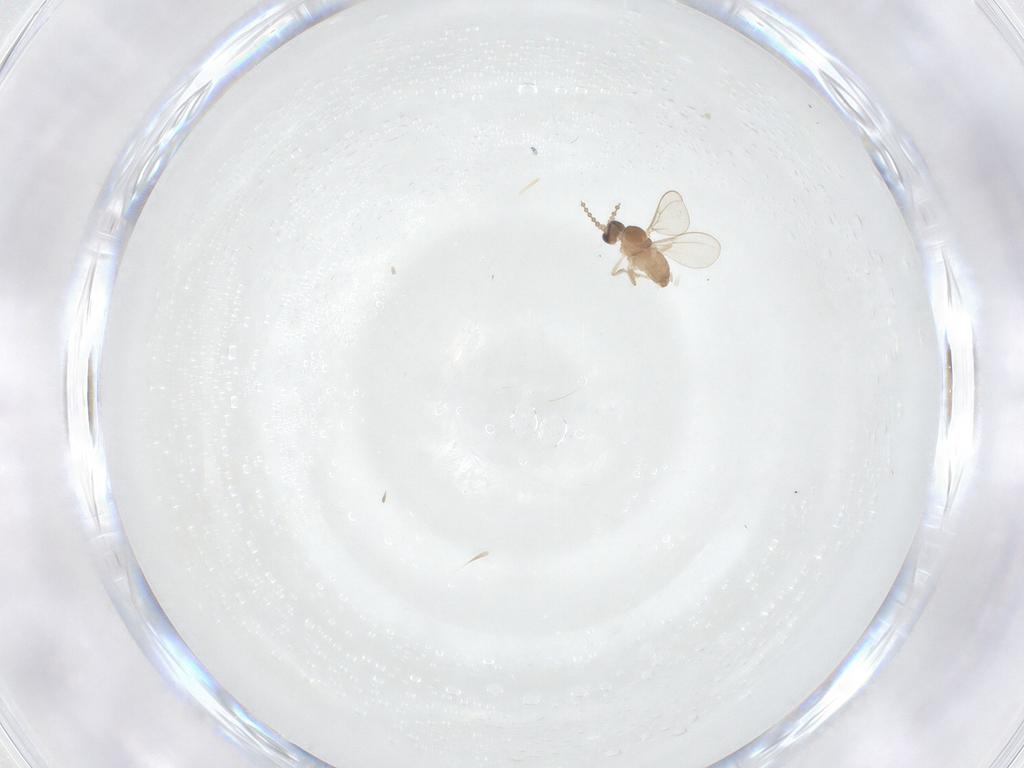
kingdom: Animalia
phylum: Arthropoda
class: Insecta
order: Diptera
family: Cecidomyiidae
